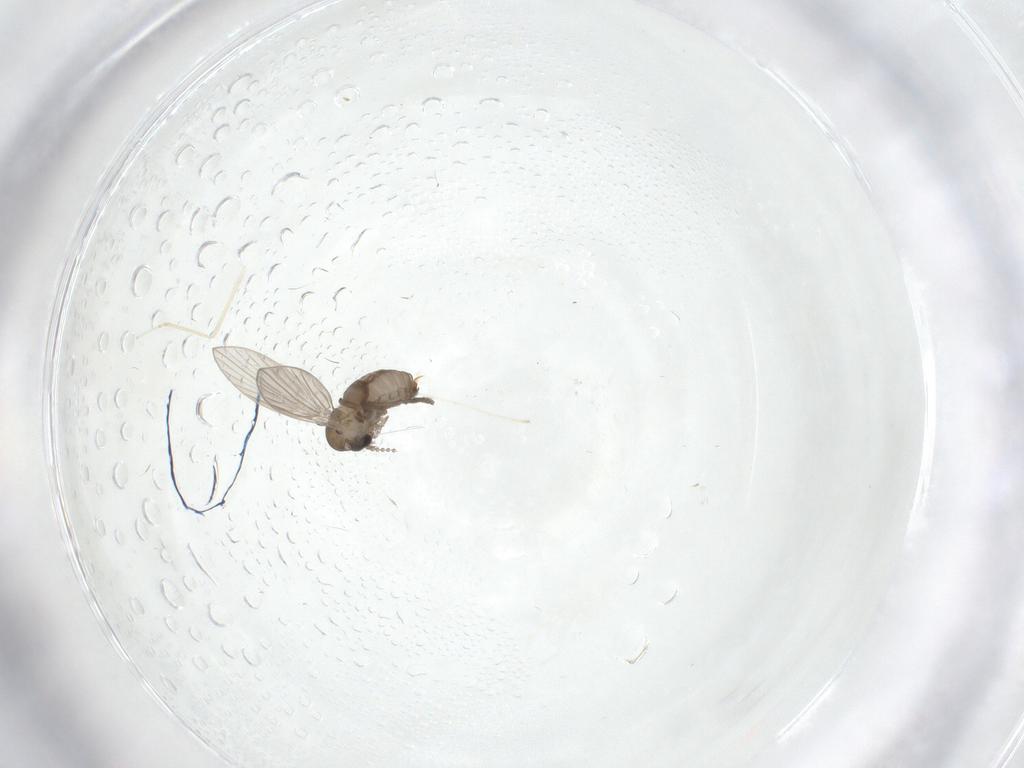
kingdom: Animalia
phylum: Arthropoda
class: Insecta
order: Diptera
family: Psychodidae
